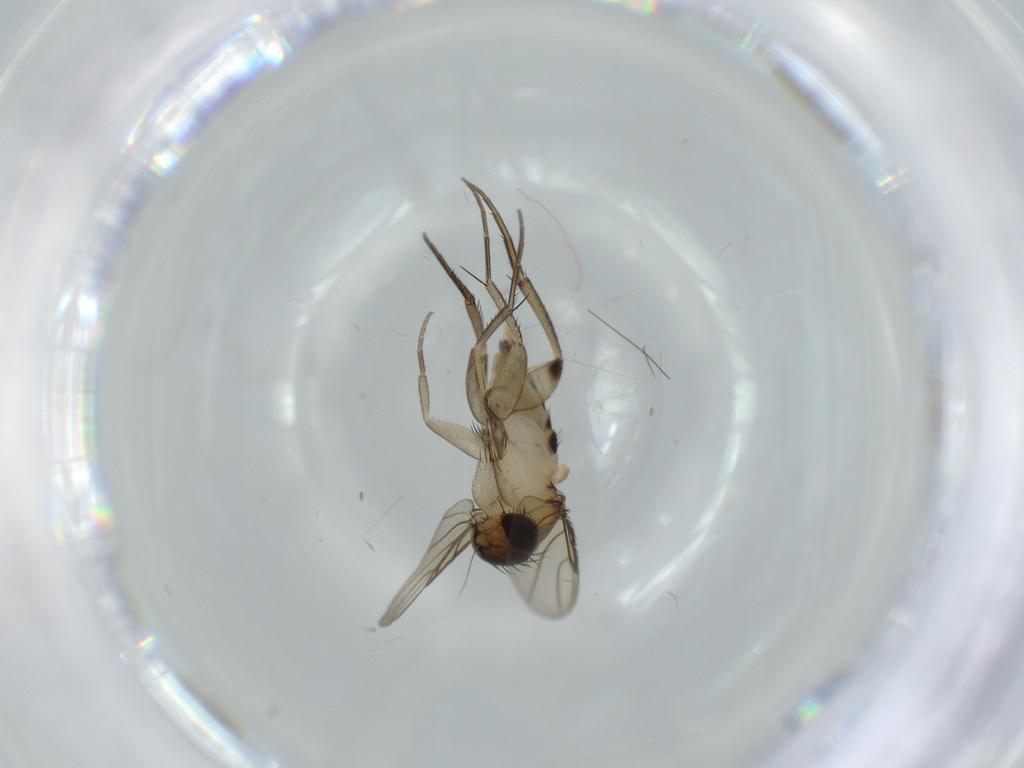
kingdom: Animalia
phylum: Arthropoda
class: Insecta
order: Diptera
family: Phoridae
